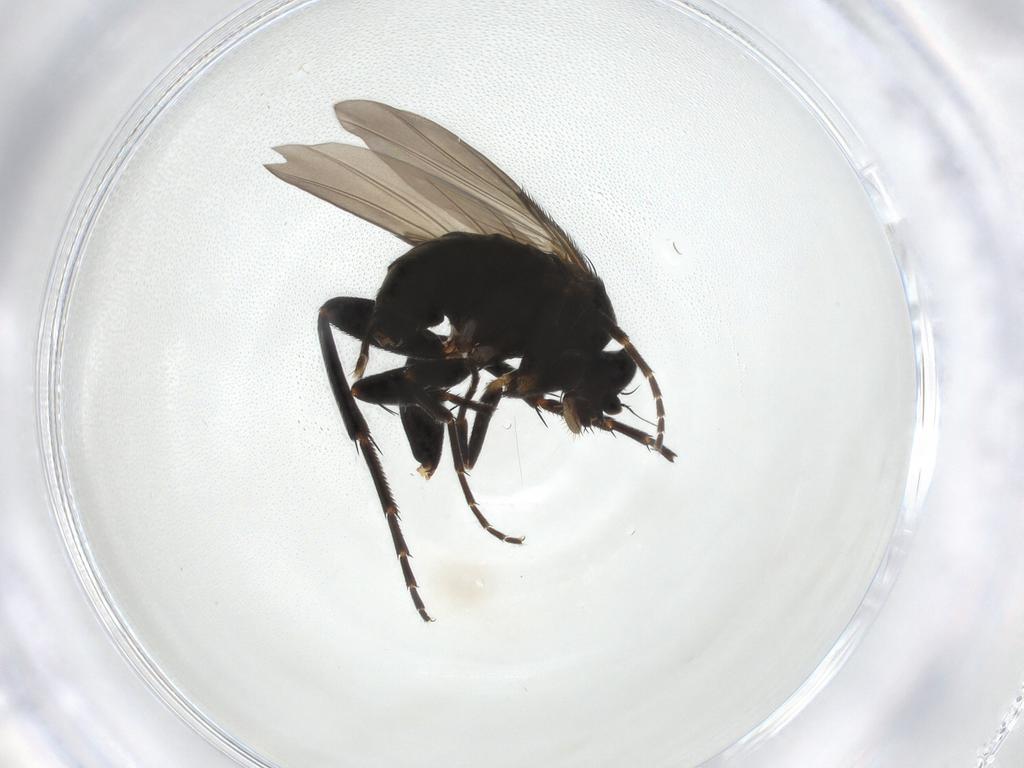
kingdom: Animalia
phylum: Arthropoda
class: Insecta
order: Diptera
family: Phoridae
